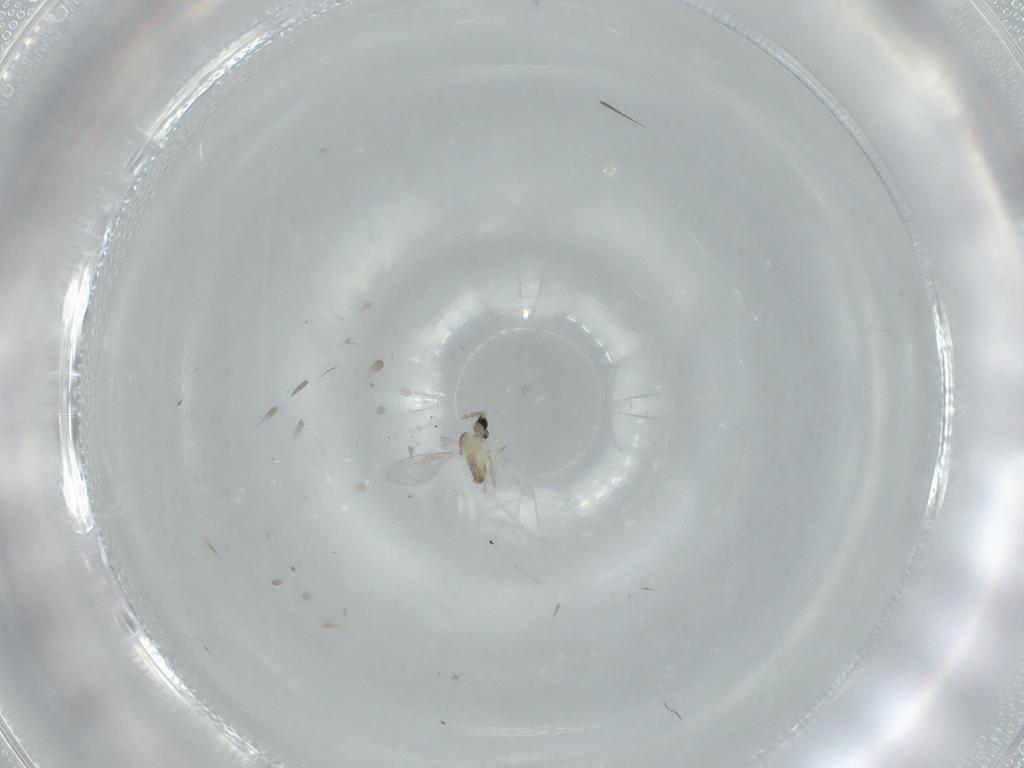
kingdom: Animalia
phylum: Arthropoda
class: Insecta
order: Diptera
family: Cecidomyiidae
